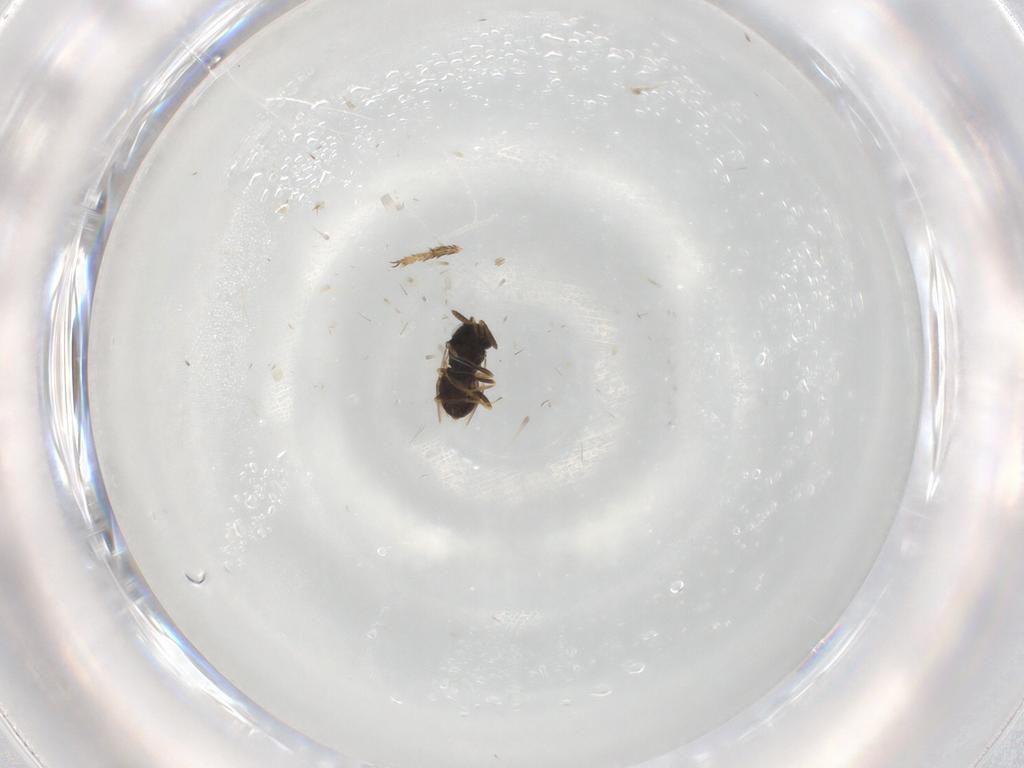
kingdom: Animalia
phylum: Arthropoda
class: Insecta
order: Hymenoptera
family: Scelionidae
